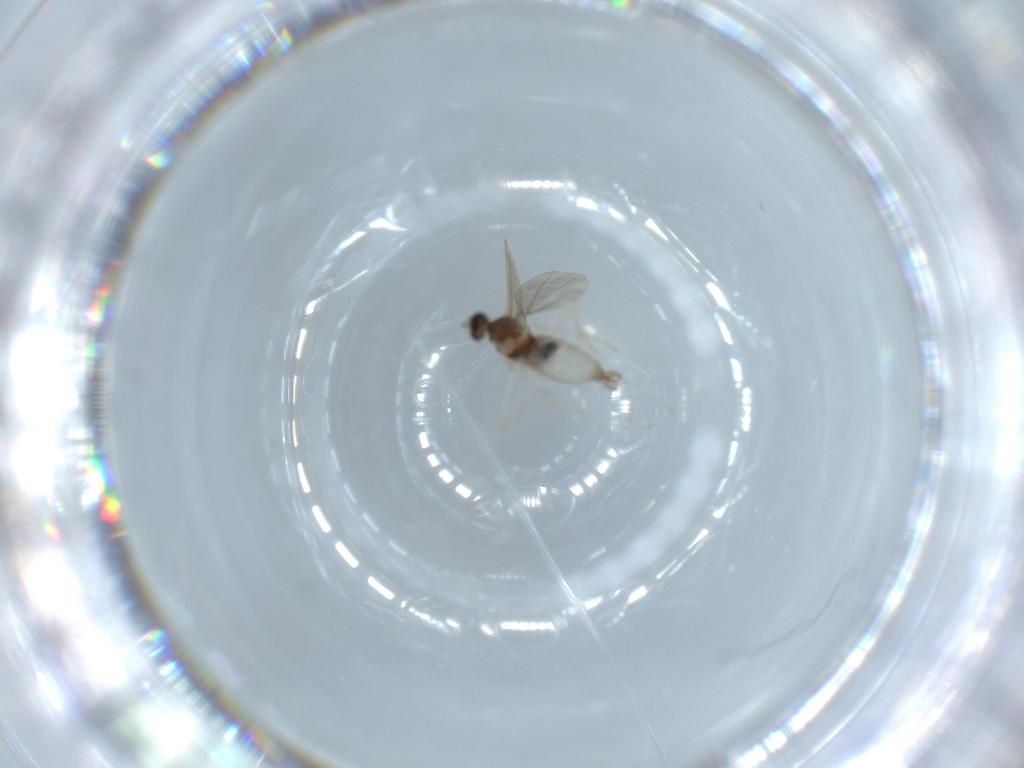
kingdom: Animalia
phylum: Arthropoda
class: Insecta
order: Diptera
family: Cecidomyiidae
